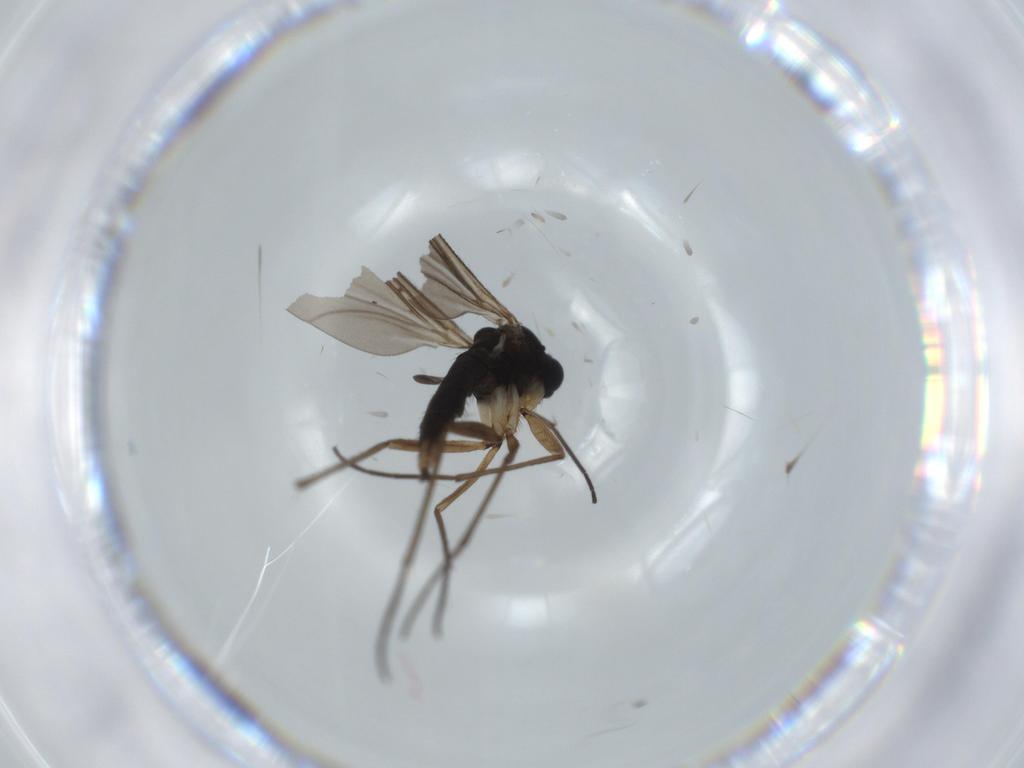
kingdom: Animalia
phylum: Arthropoda
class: Insecta
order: Diptera
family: Sciaridae
